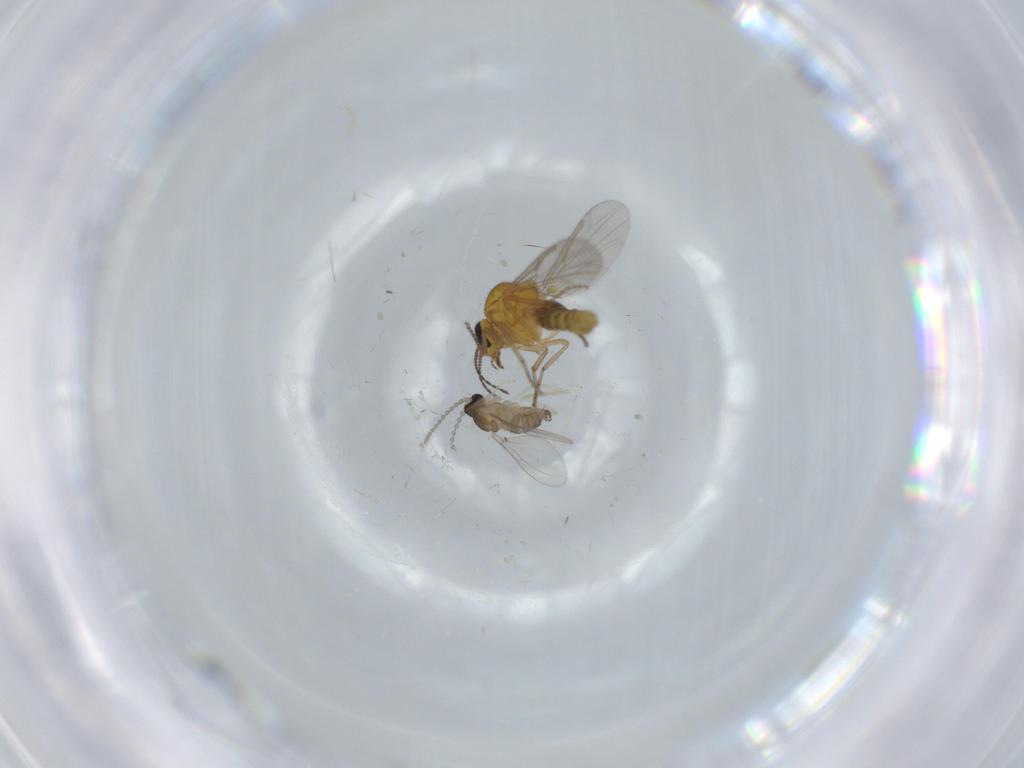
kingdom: Animalia
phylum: Arthropoda
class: Insecta
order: Diptera
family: Ceratopogonidae
